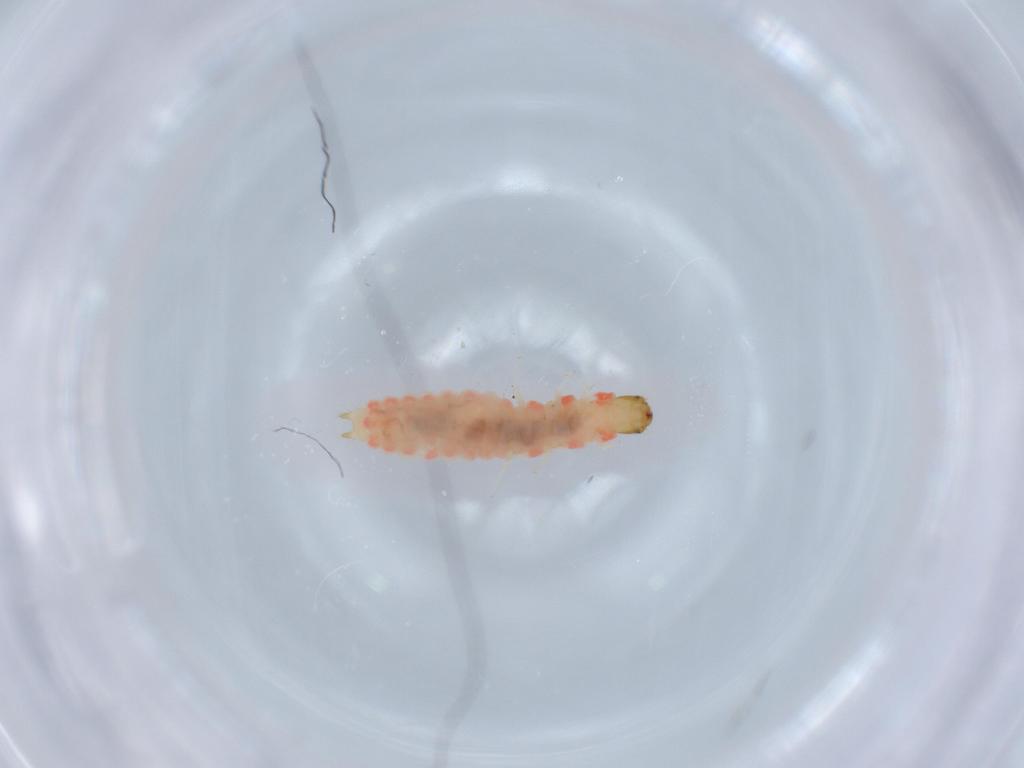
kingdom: Animalia
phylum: Arthropoda
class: Insecta
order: Coleoptera
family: Melyridae
